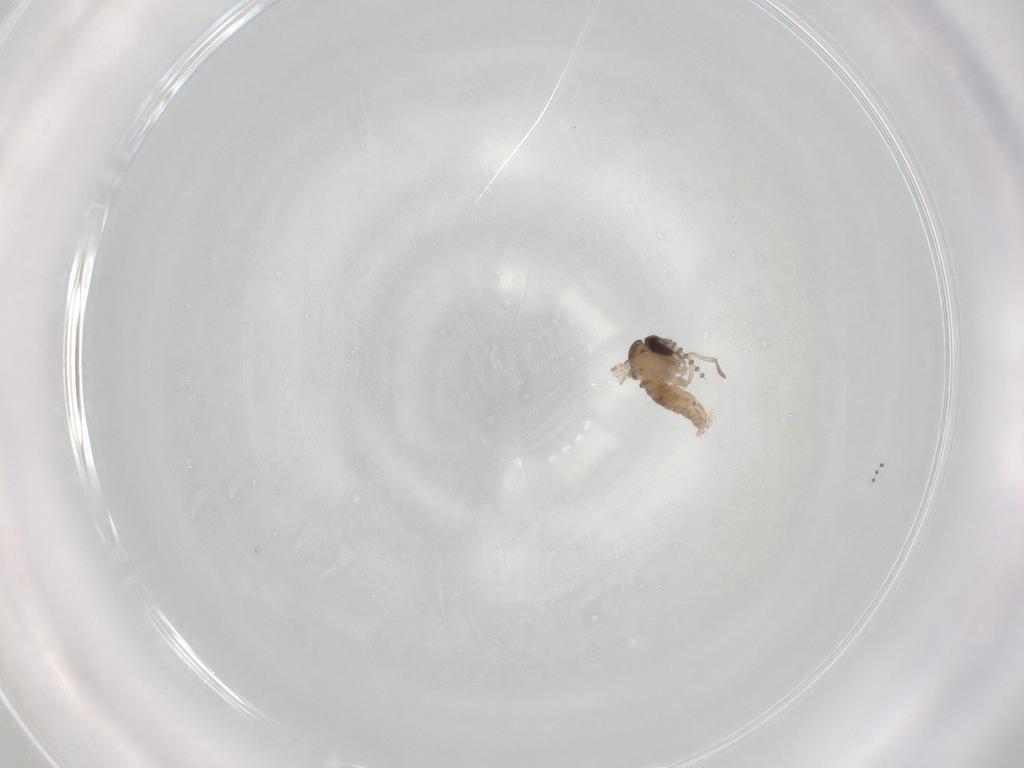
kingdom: Animalia
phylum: Arthropoda
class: Insecta
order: Diptera
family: Psychodidae
